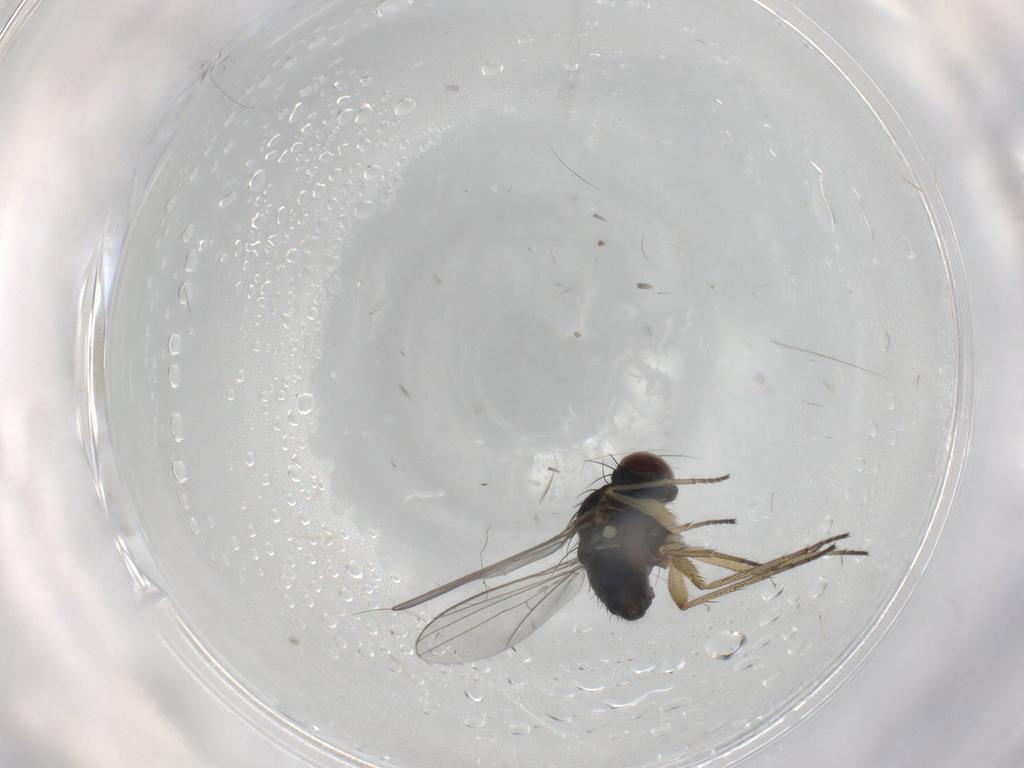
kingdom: Animalia
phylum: Arthropoda
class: Insecta
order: Diptera
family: Dolichopodidae
